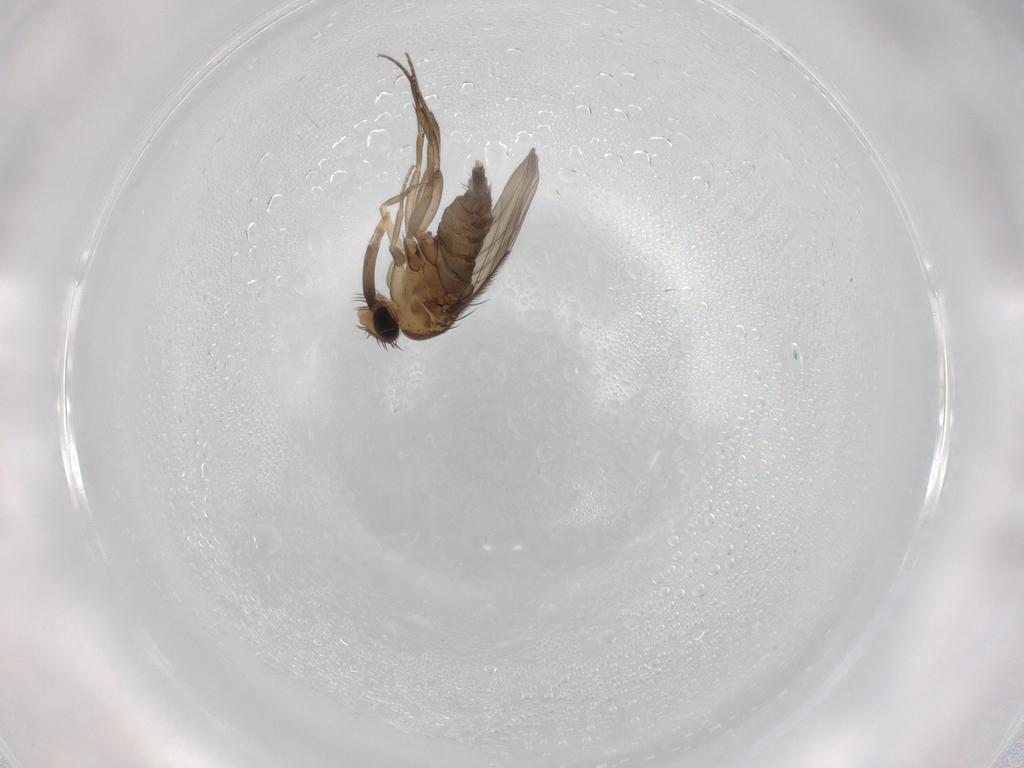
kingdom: Animalia
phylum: Arthropoda
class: Insecta
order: Diptera
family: Phoridae
